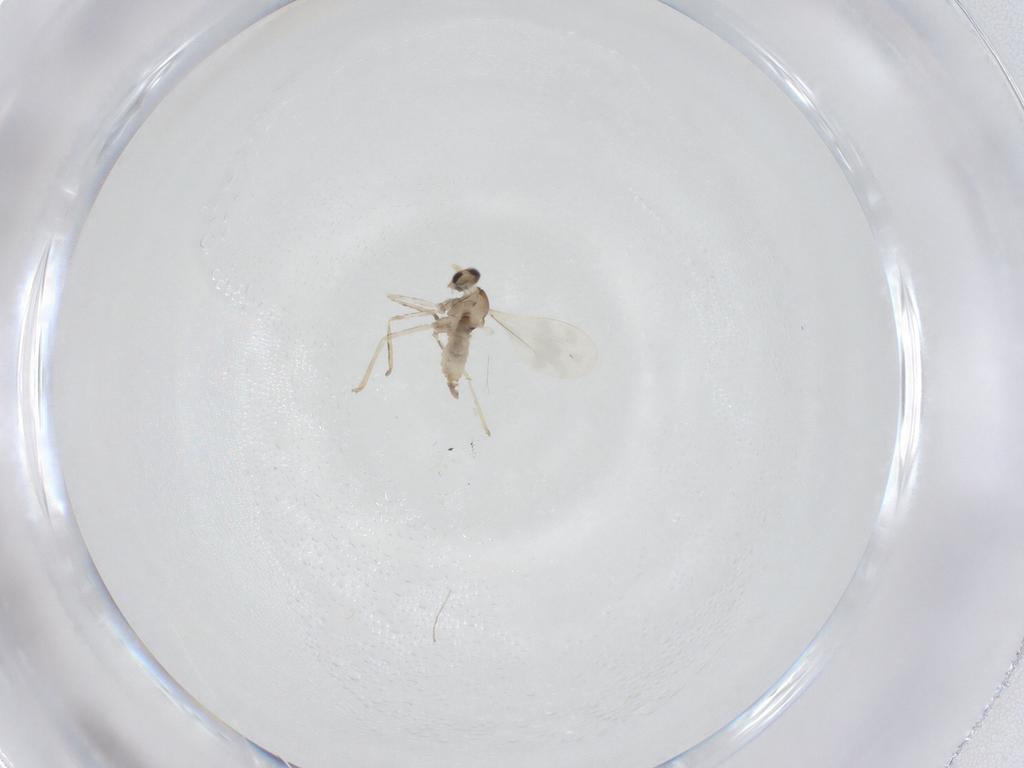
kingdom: Animalia
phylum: Arthropoda
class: Insecta
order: Diptera
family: Cecidomyiidae
